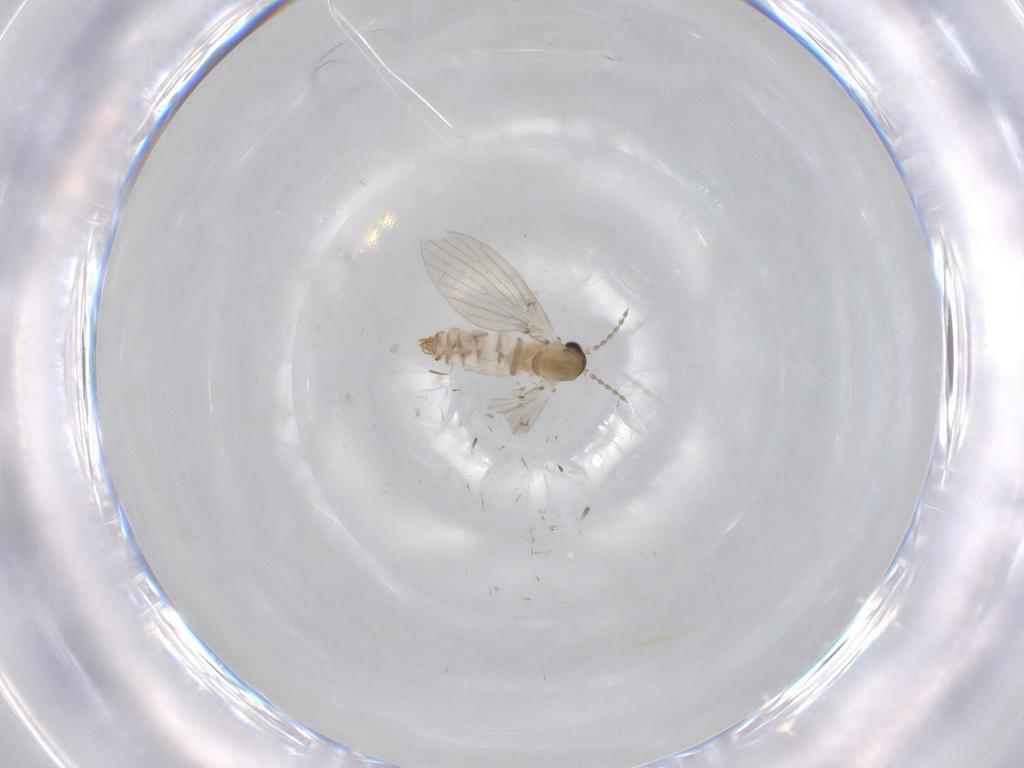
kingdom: Animalia
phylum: Arthropoda
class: Insecta
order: Diptera
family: Psychodidae
